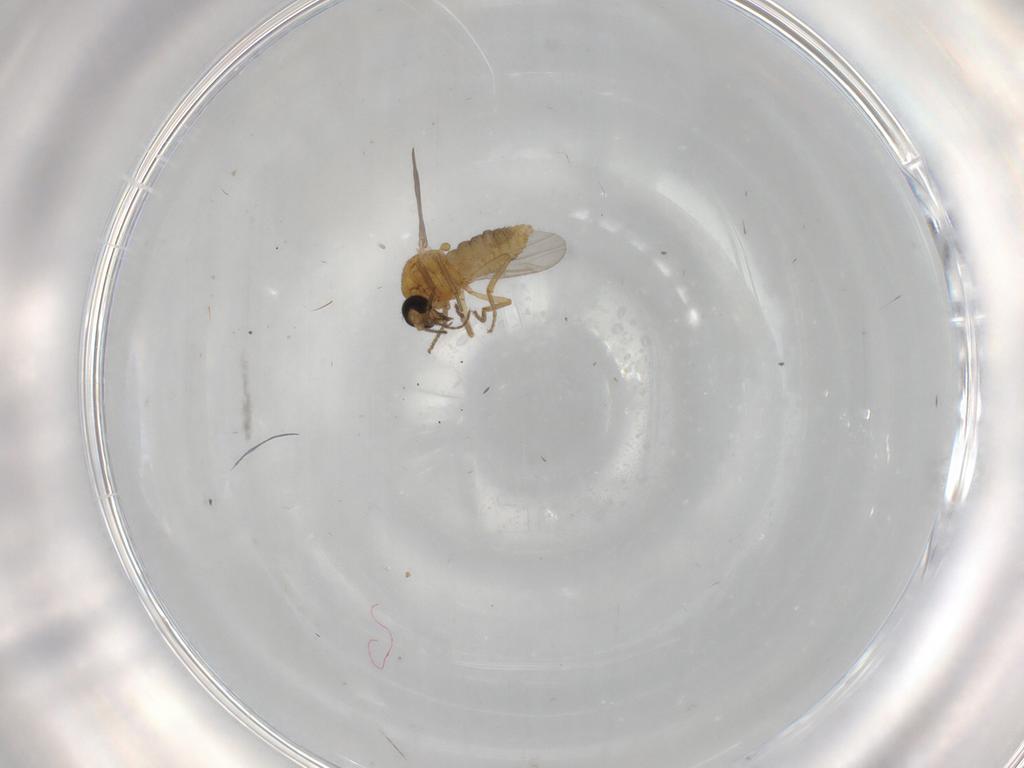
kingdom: Animalia
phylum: Arthropoda
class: Insecta
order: Diptera
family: Ceratopogonidae
